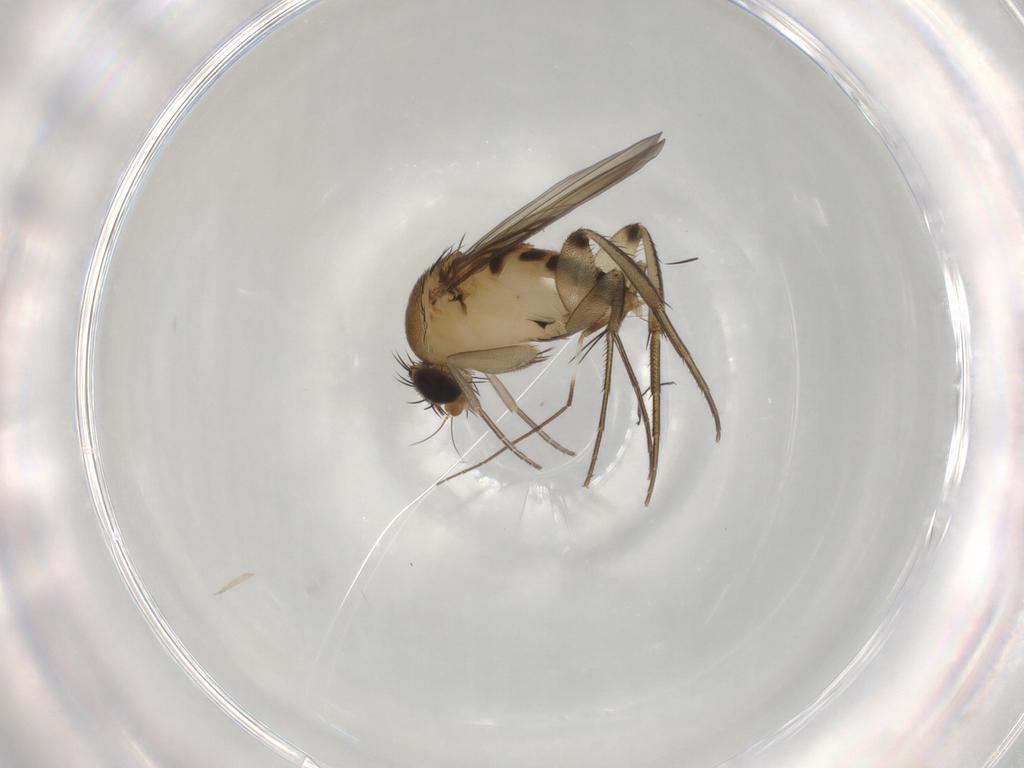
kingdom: Animalia
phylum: Arthropoda
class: Insecta
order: Diptera
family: Phoridae
